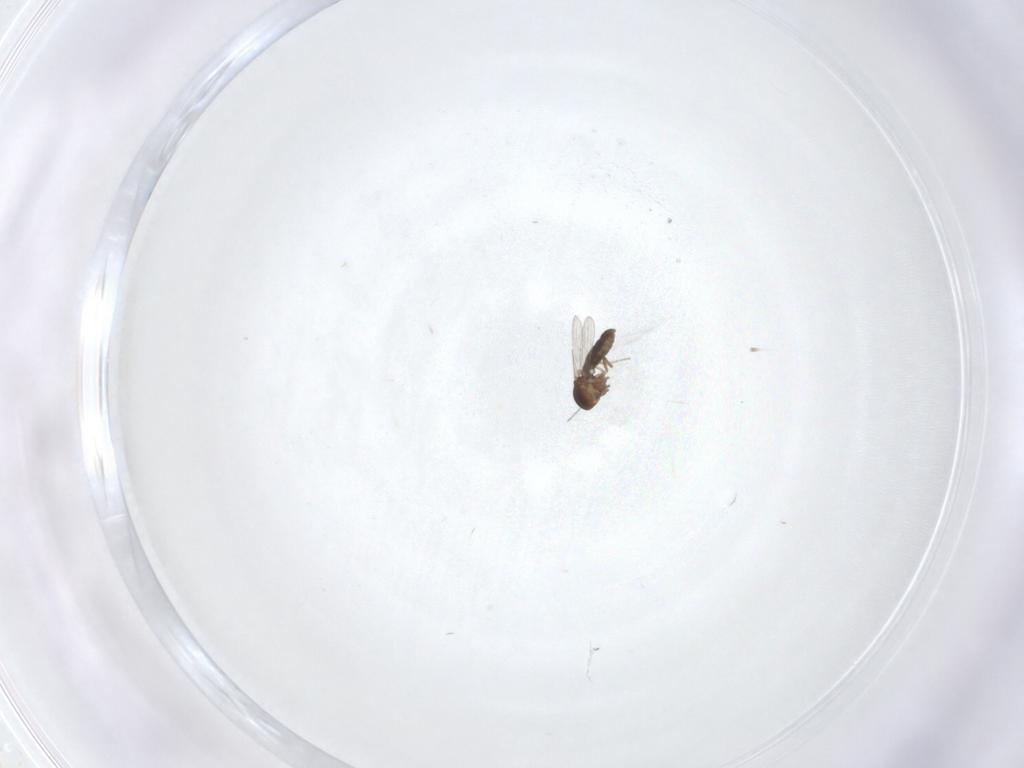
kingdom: Animalia
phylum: Arthropoda
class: Insecta
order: Diptera
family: Ceratopogonidae
